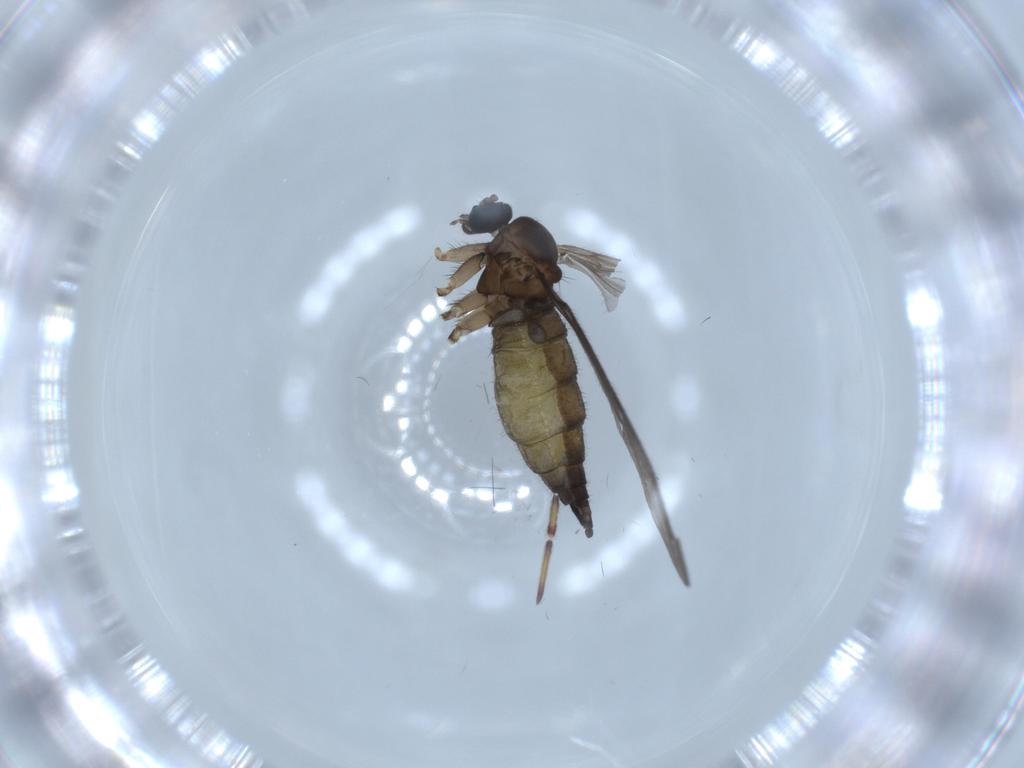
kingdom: Animalia
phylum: Arthropoda
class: Insecta
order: Diptera
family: Sciaridae
